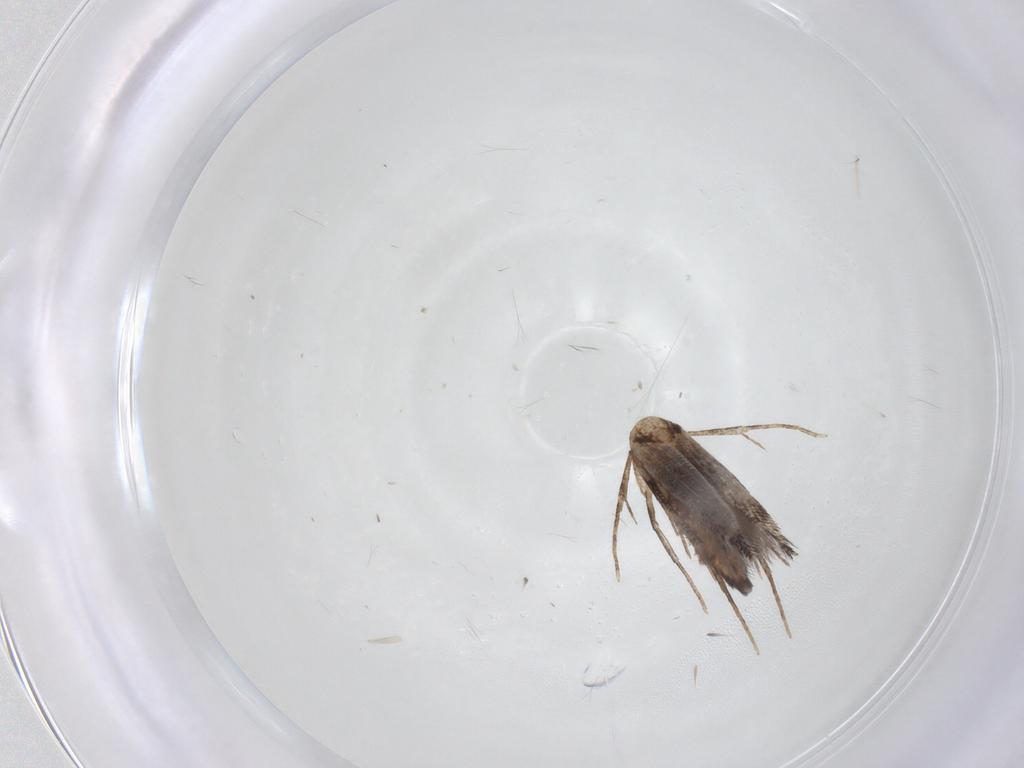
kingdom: Animalia
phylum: Arthropoda
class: Insecta
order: Lepidoptera
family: Cosmopterigidae
